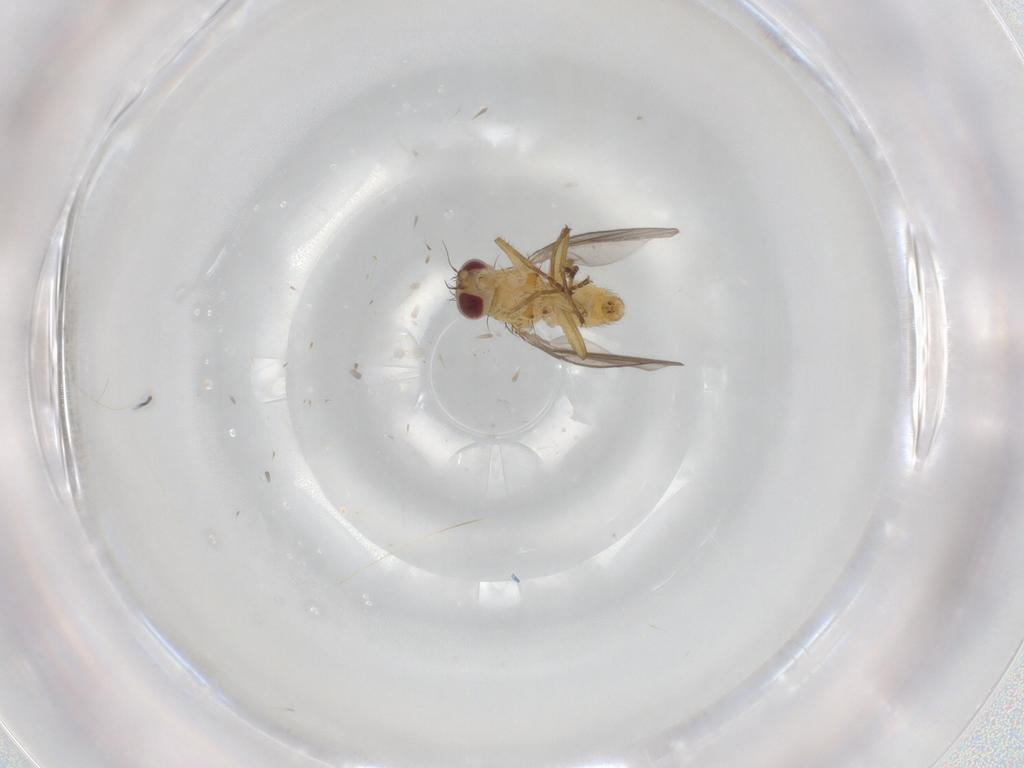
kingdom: Animalia
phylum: Arthropoda
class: Insecta
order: Diptera
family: Agromyzidae
